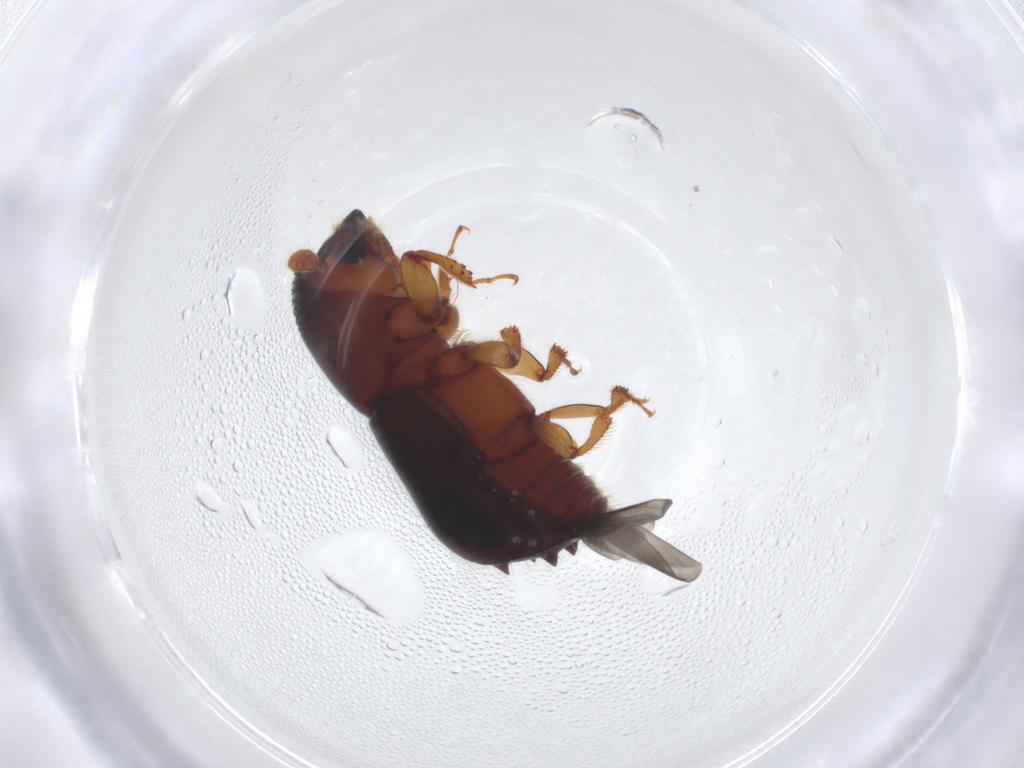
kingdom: Animalia
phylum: Arthropoda
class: Insecta
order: Coleoptera
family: Curculionidae
